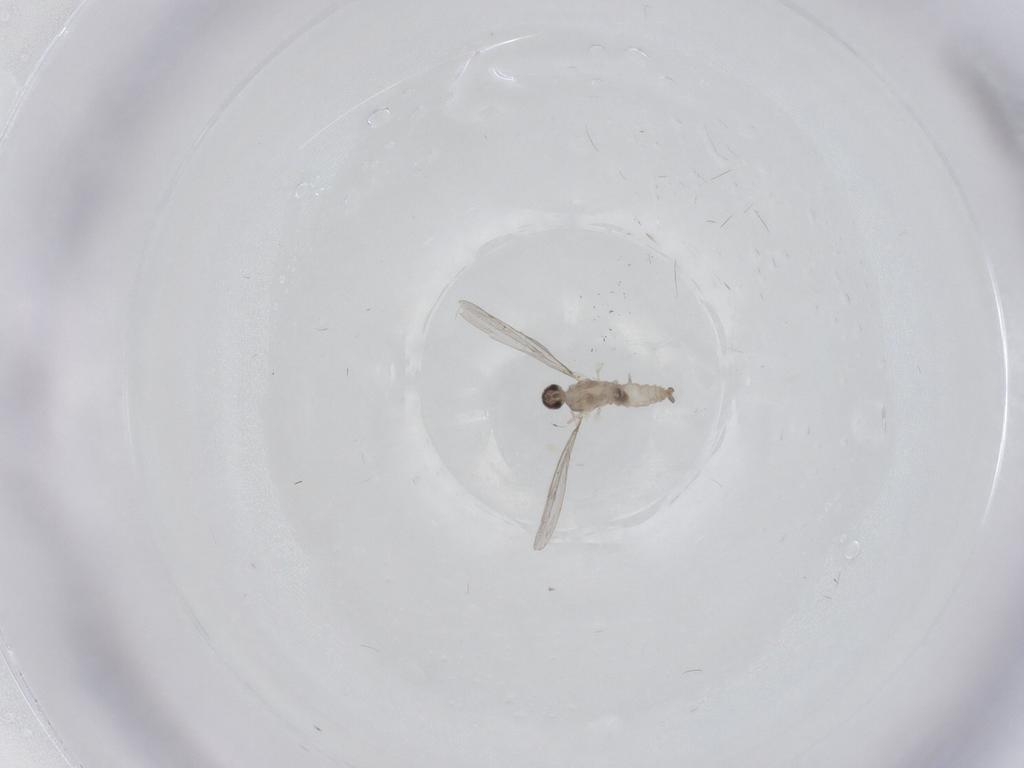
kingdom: Animalia
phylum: Arthropoda
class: Insecta
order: Diptera
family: Cecidomyiidae
